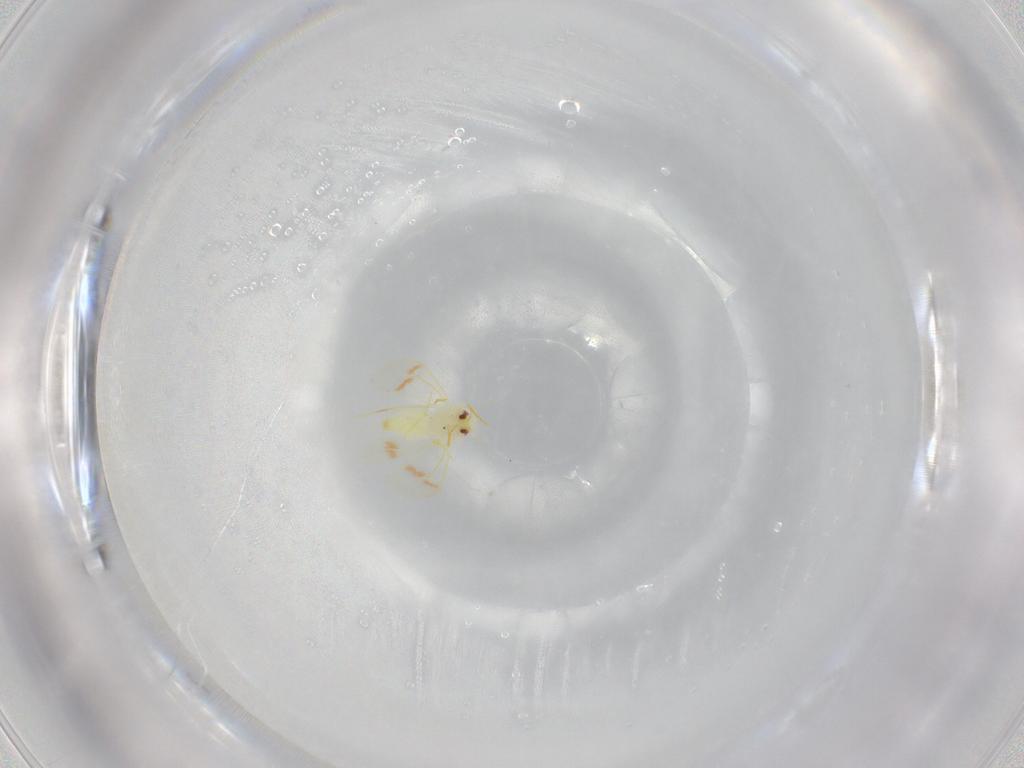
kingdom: Animalia
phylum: Arthropoda
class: Insecta
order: Hemiptera
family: Aleyrodidae
